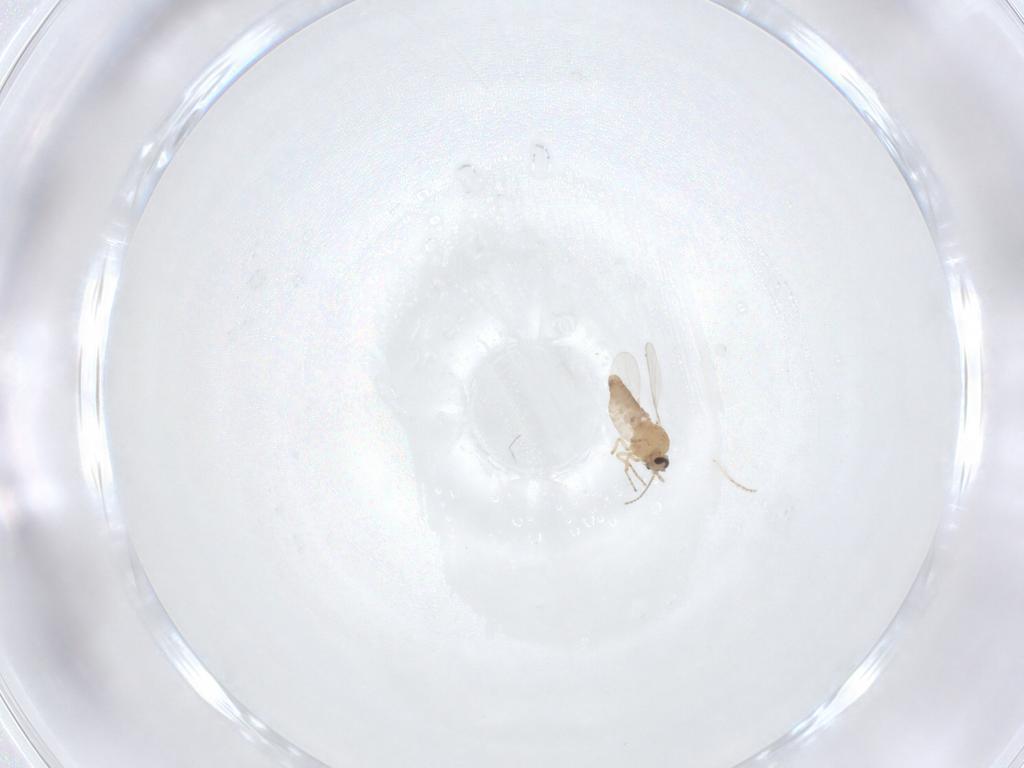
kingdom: Animalia
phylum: Arthropoda
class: Insecta
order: Diptera
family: Ceratopogonidae
